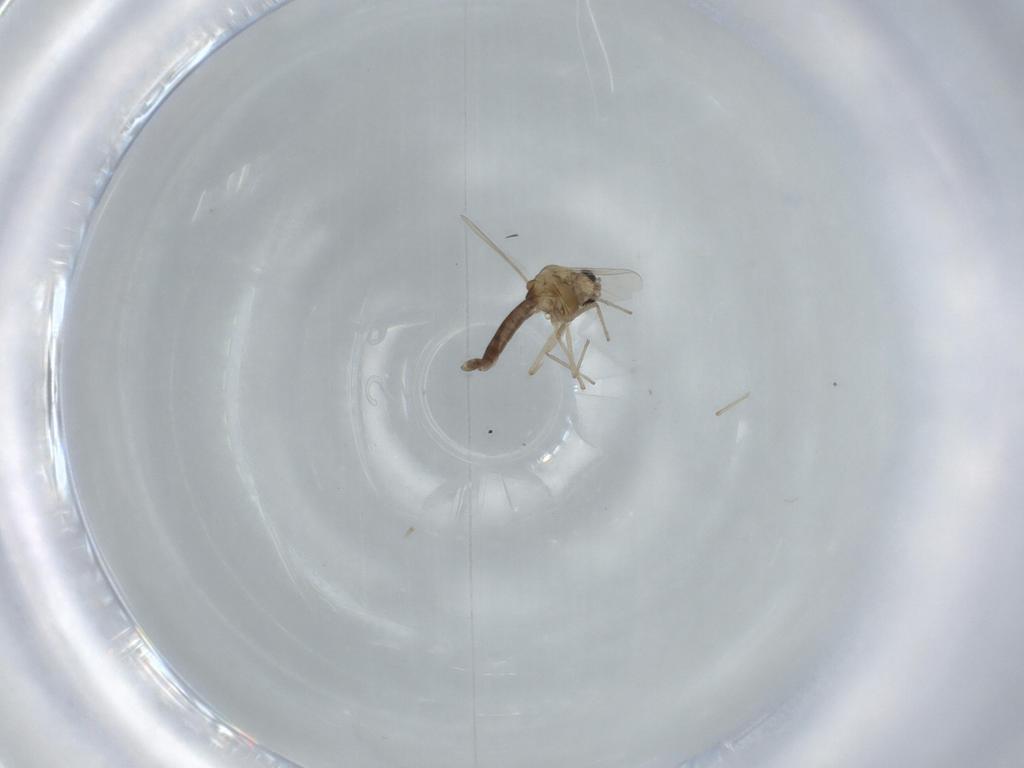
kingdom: Animalia
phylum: Arthropoda
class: Insecta
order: Diptera
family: Chironomidae
